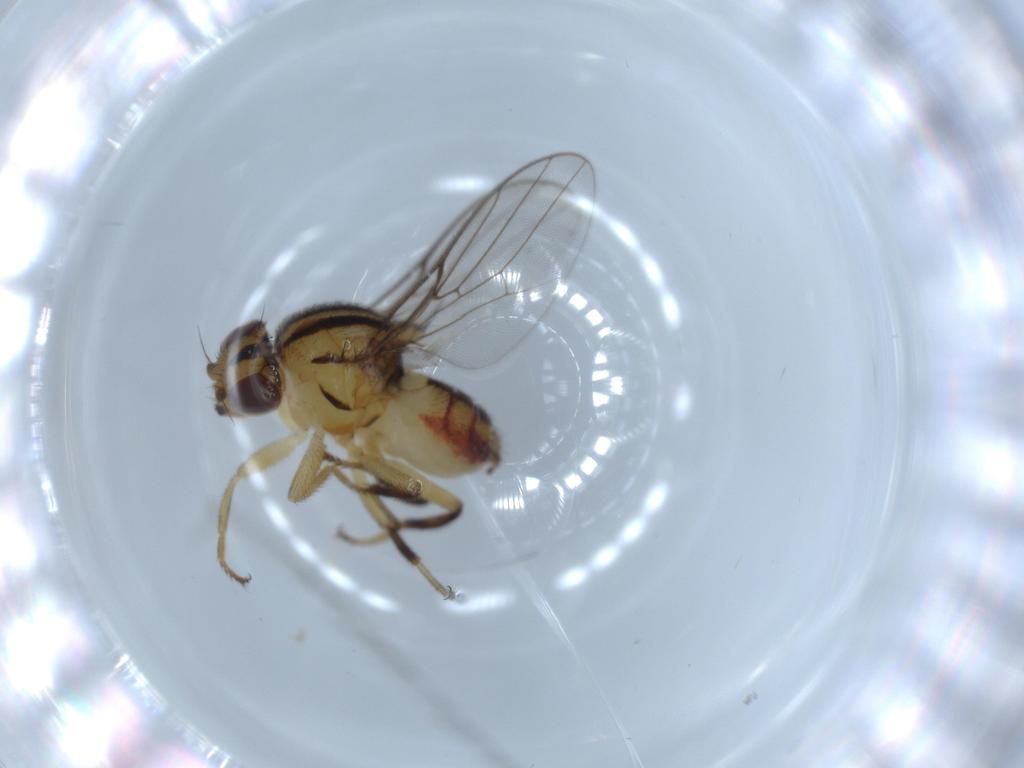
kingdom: Animalia
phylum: Arthropoda
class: Insecta
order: Diptera
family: Chloropidae
